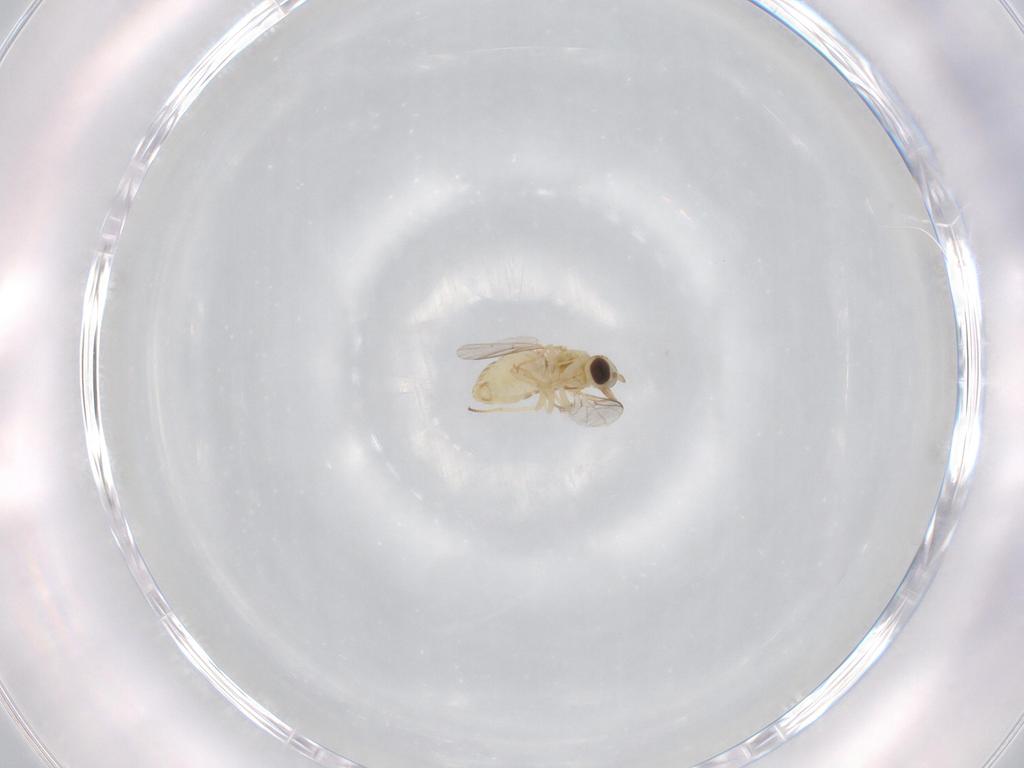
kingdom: Animalia
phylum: Arthropoda
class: Insecta
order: Diptera
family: Mythicomyiidae
